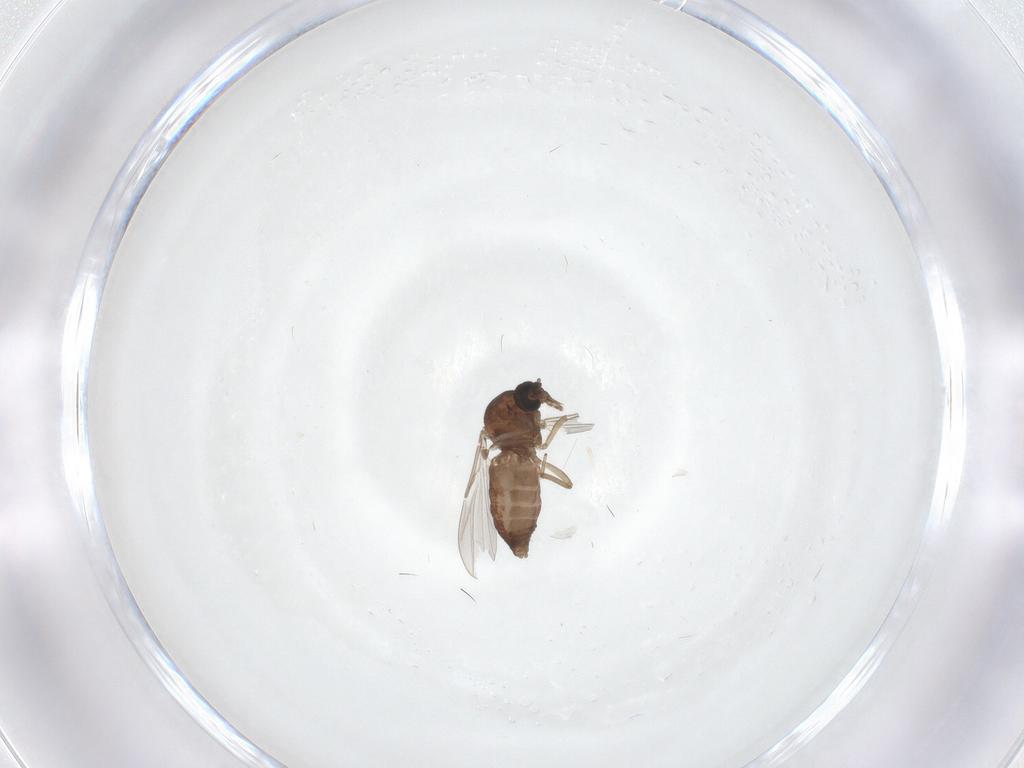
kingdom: Animalia
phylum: Arthropoda
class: Insecta
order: Diptera
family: Ceratopogonidae
